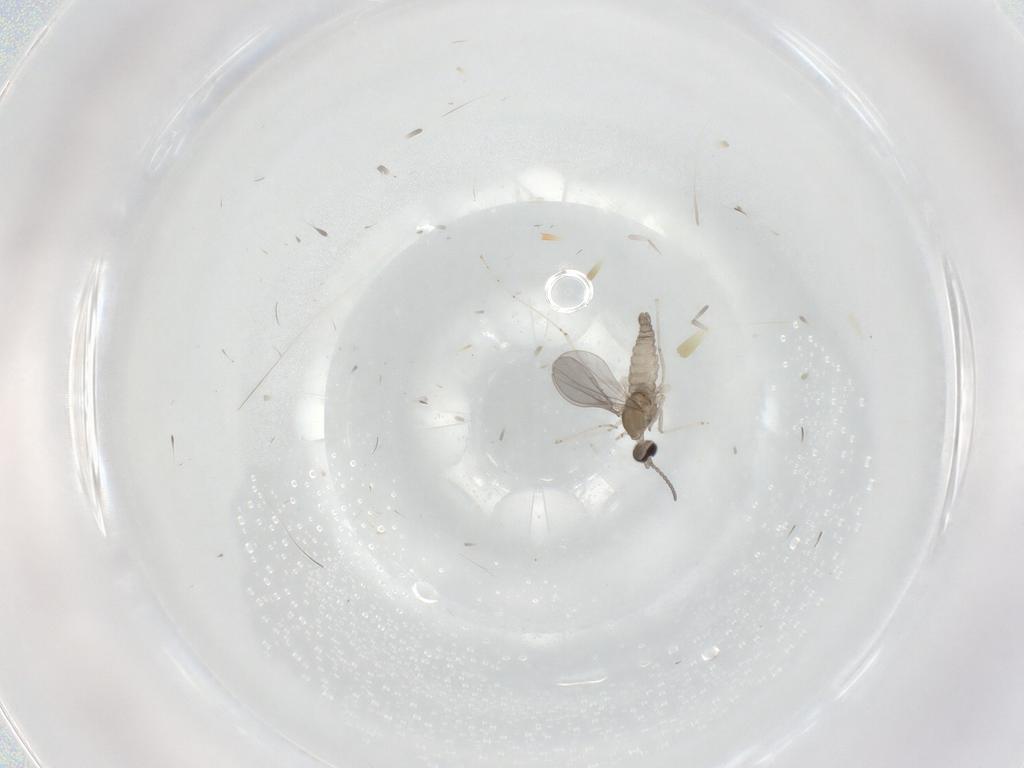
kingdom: Animalia
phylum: Arthropoda
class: Insecta
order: Diptera
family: Cecidomyiidae
